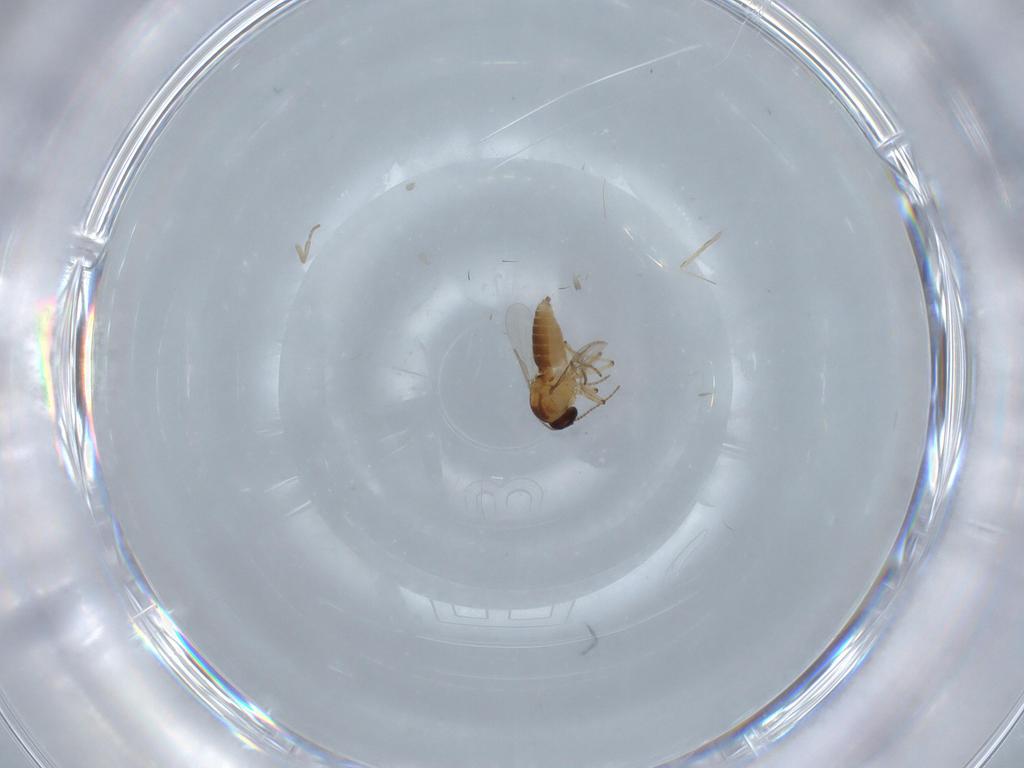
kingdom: Animalia
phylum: Arthropoda
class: Insecta
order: Diptera
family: Cecidomyiidae
